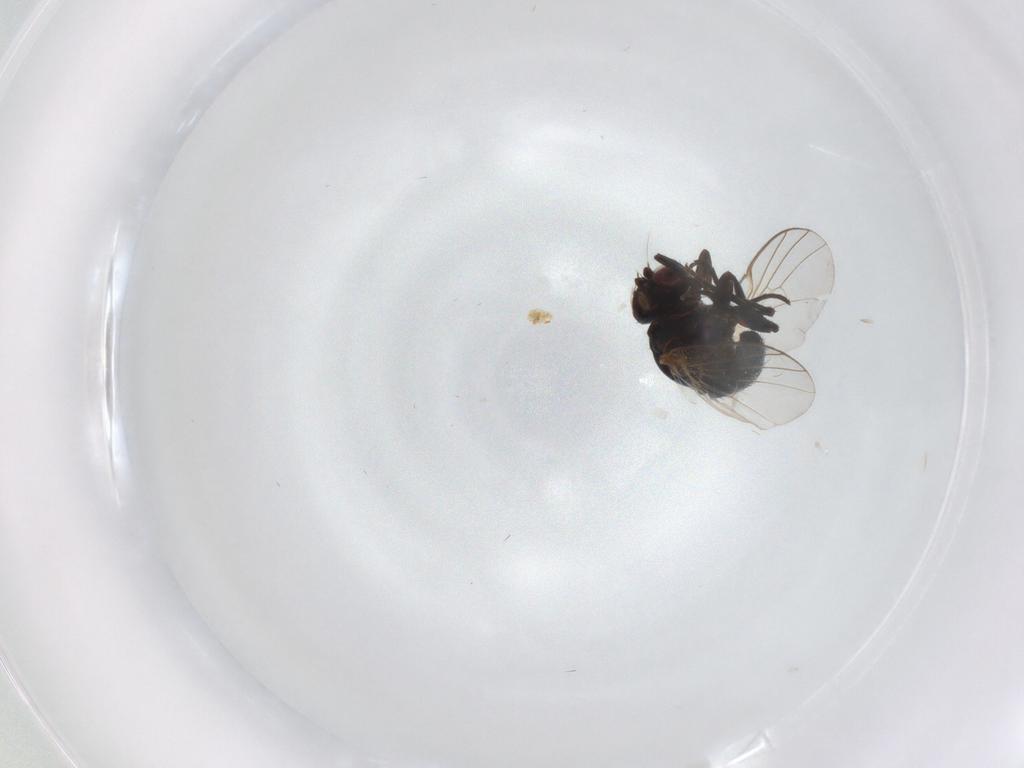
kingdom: Animalia
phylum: Arthropoda
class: Insecta
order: Diptera
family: Agromyzidae
